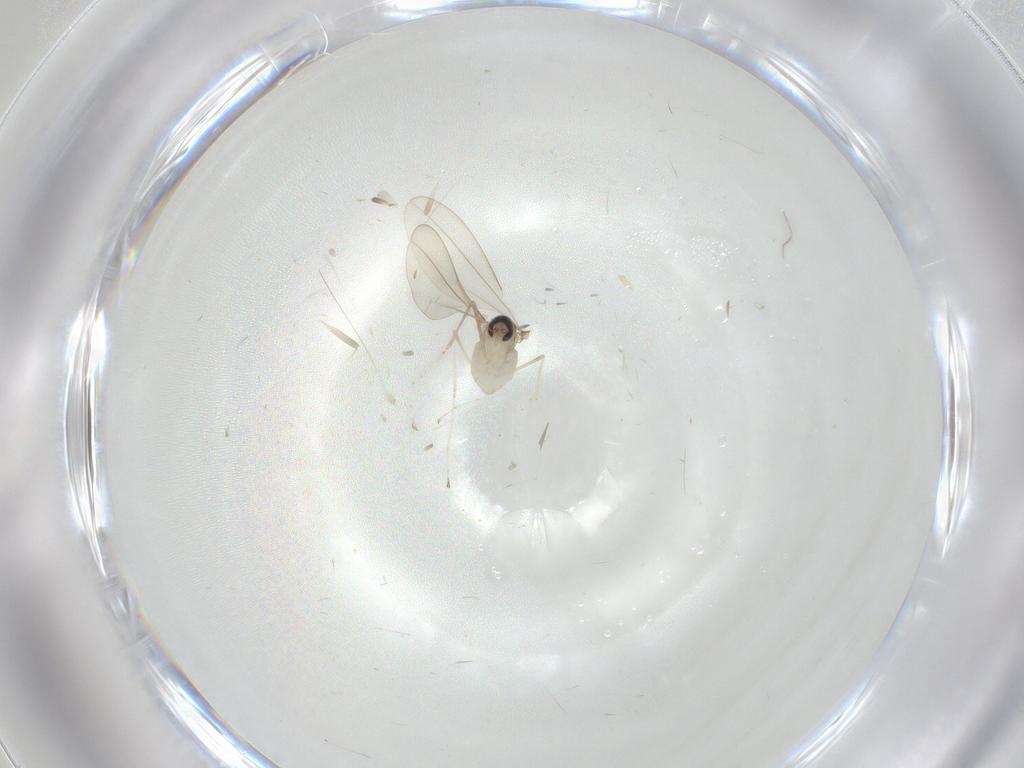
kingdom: Animalia
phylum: Arthropoda
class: Insecta
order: Diptera
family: Cecidomyiidae
